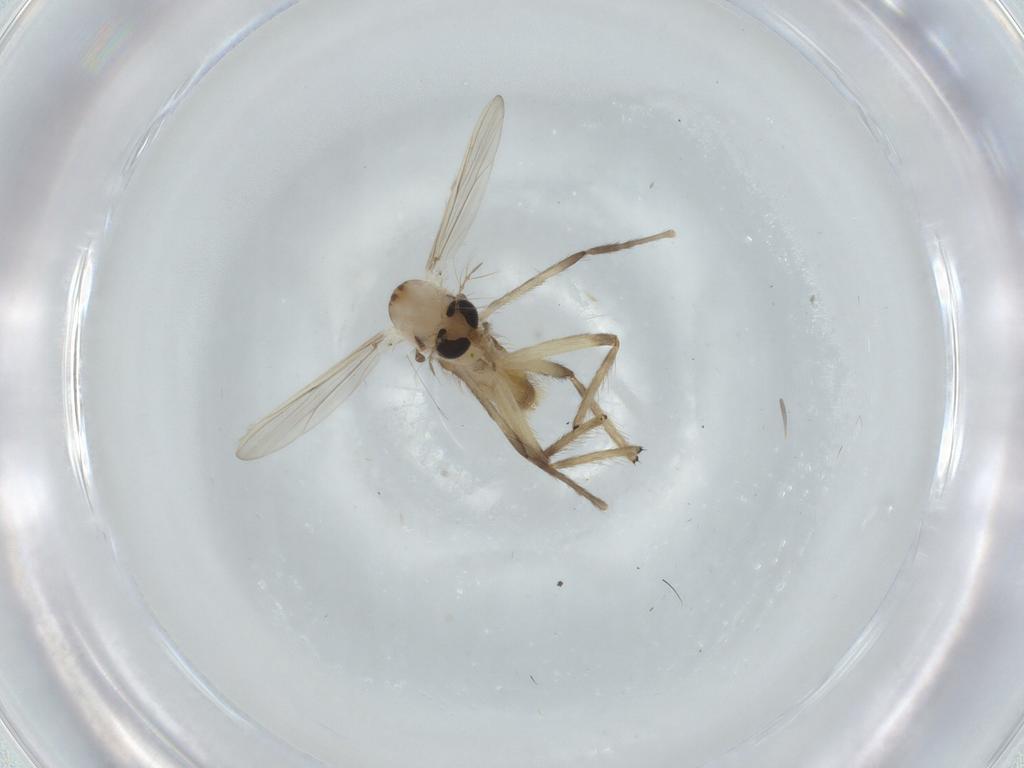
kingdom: Animalia
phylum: Arthropoda
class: Insecta
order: Diptera
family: Chironomidae
